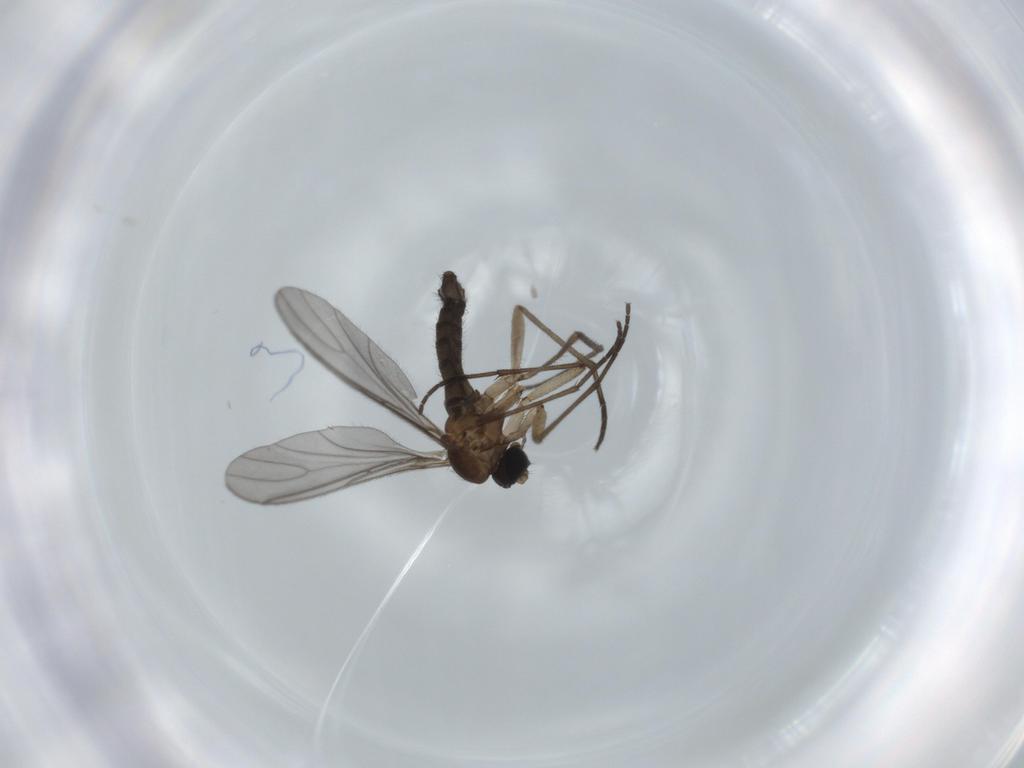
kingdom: Animalia
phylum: Arthropoda
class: Insecta
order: Diptera
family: Sciaridae
